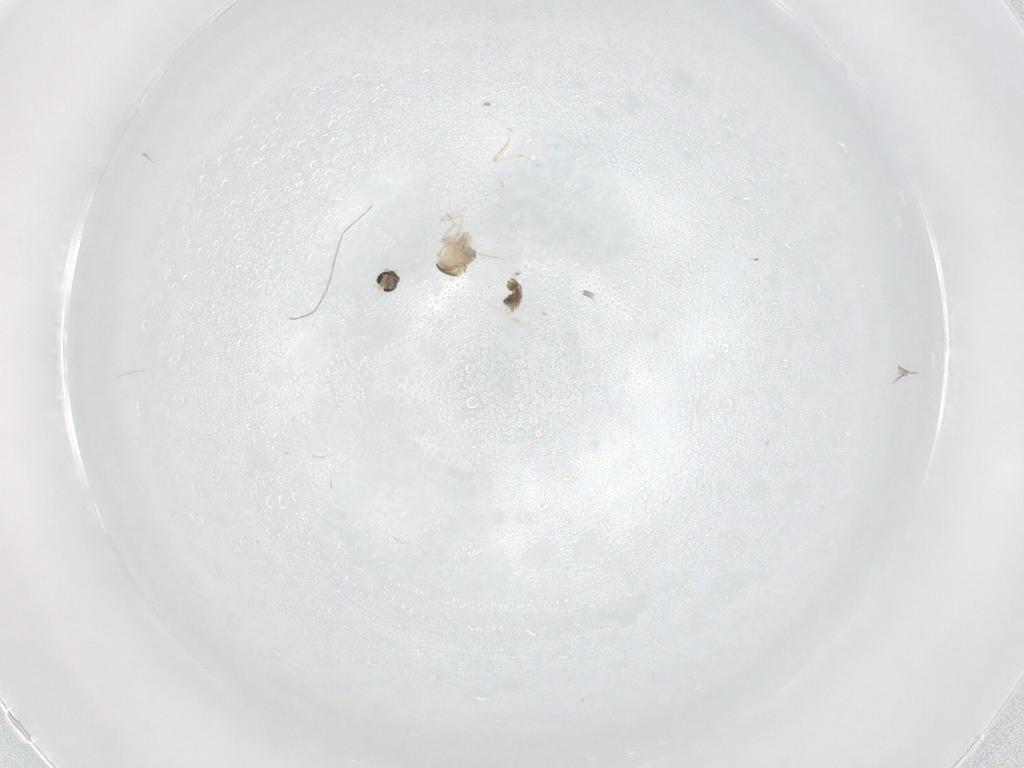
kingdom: Animalia
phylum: Arthropoda
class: Insecta
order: Diptera
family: Cecidomyiidae
